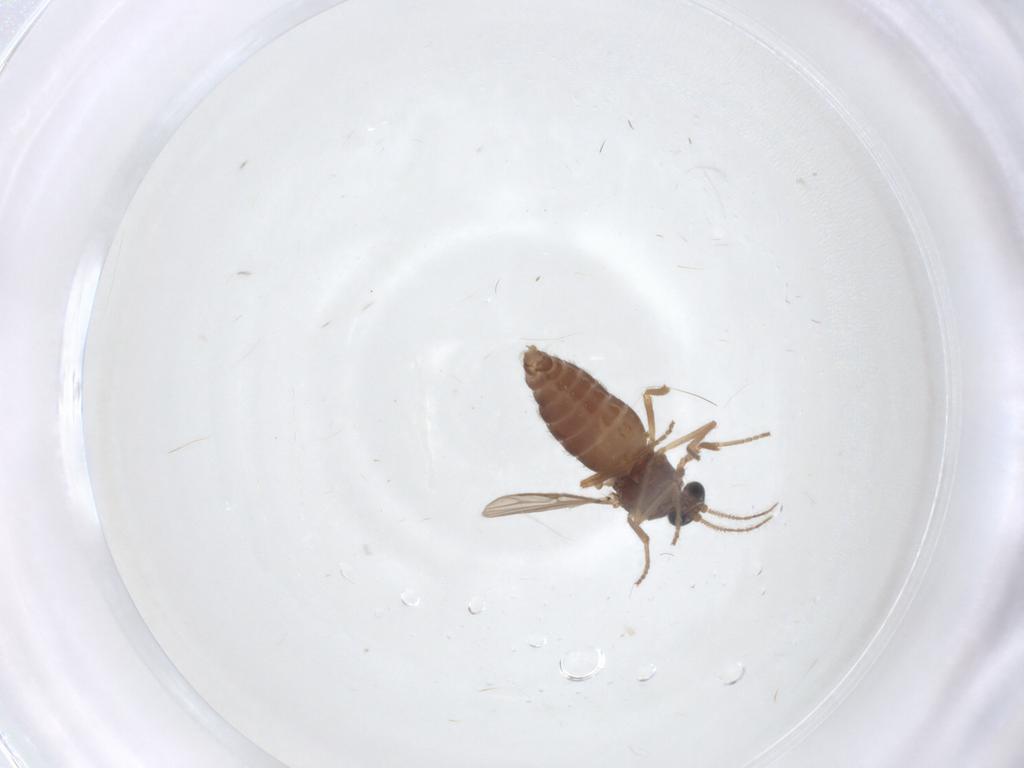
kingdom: Animalia
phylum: Arthropoda
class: Insecta
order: Diptera
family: Ceratopogonidae
